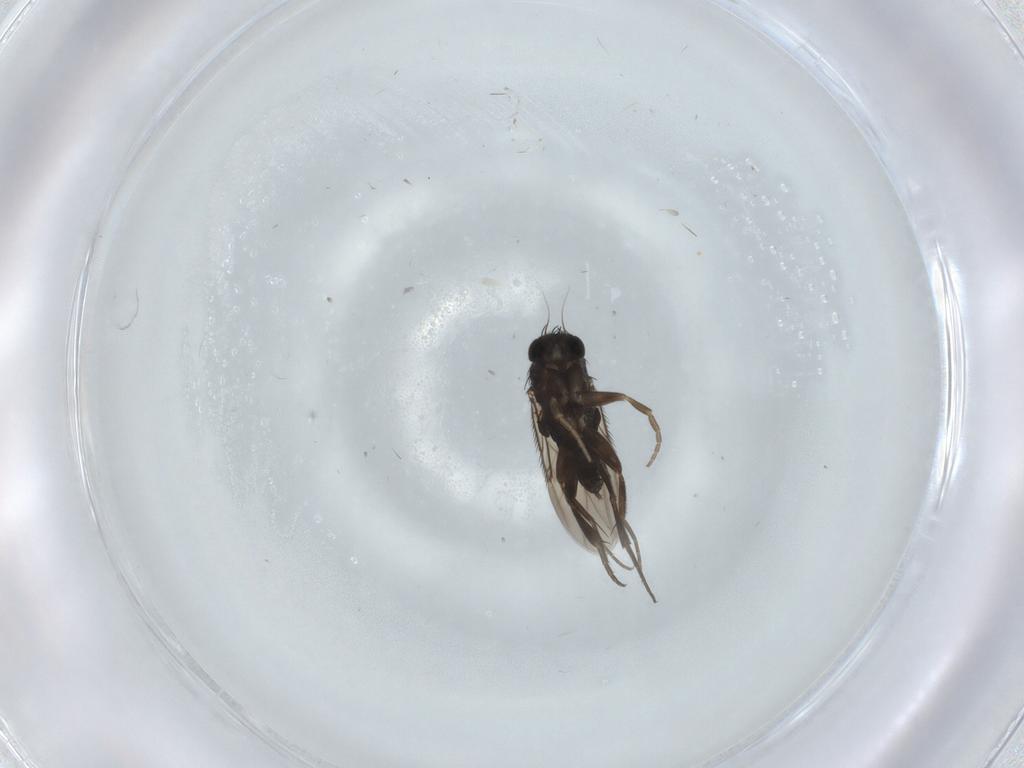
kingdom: Animalia
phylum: Arthropoda
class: Insecta
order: Diptera
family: Cecidomyiidae
